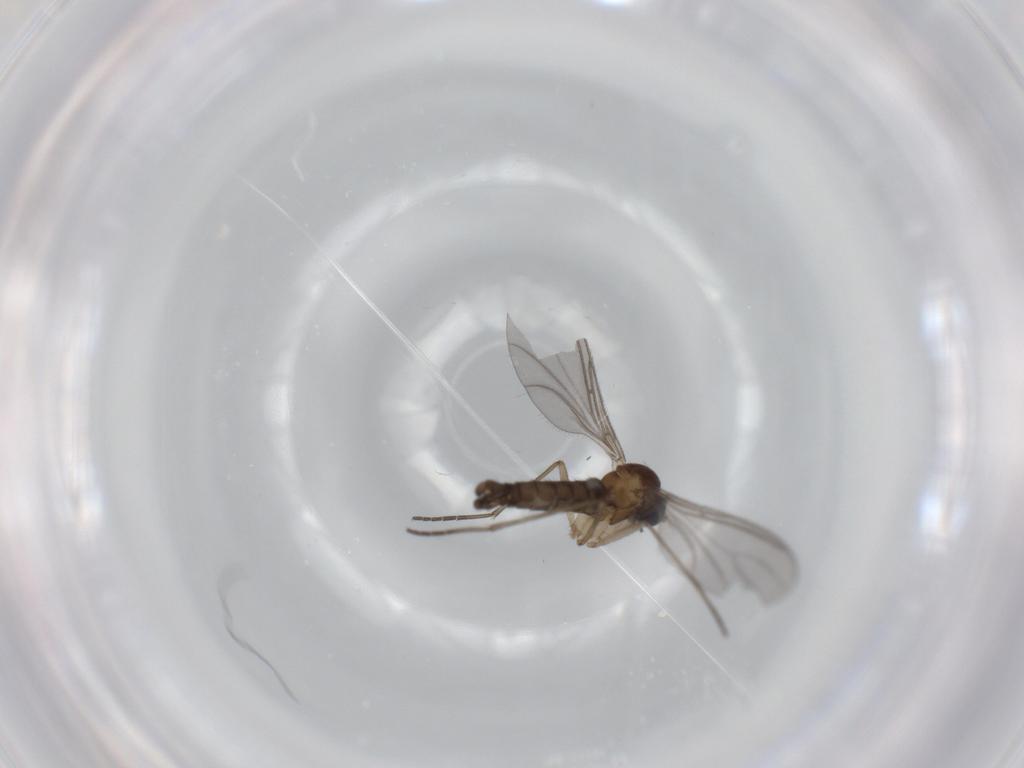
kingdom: Animalia
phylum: Arthropoda
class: Insecta
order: Diptera
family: Sciaridae
